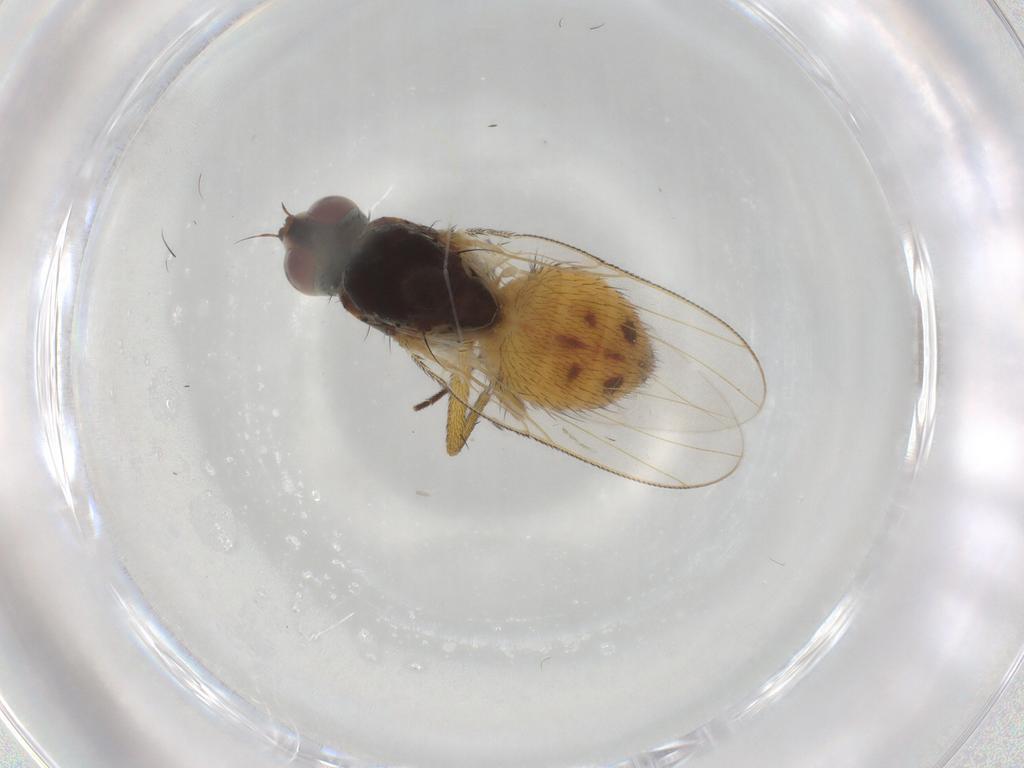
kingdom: Animalia
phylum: Arthropoda
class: Insecta
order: Diptera
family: Muscidae
